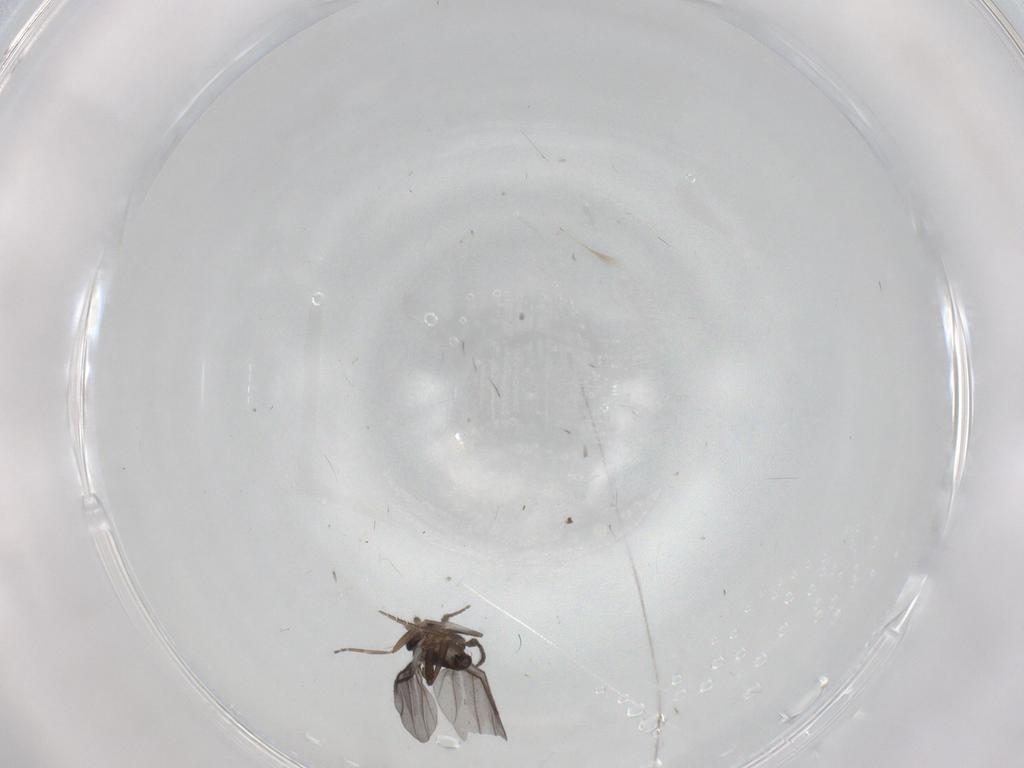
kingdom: Animalia
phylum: Arthropoda
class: Insecta
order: Diptera
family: Phoridae
